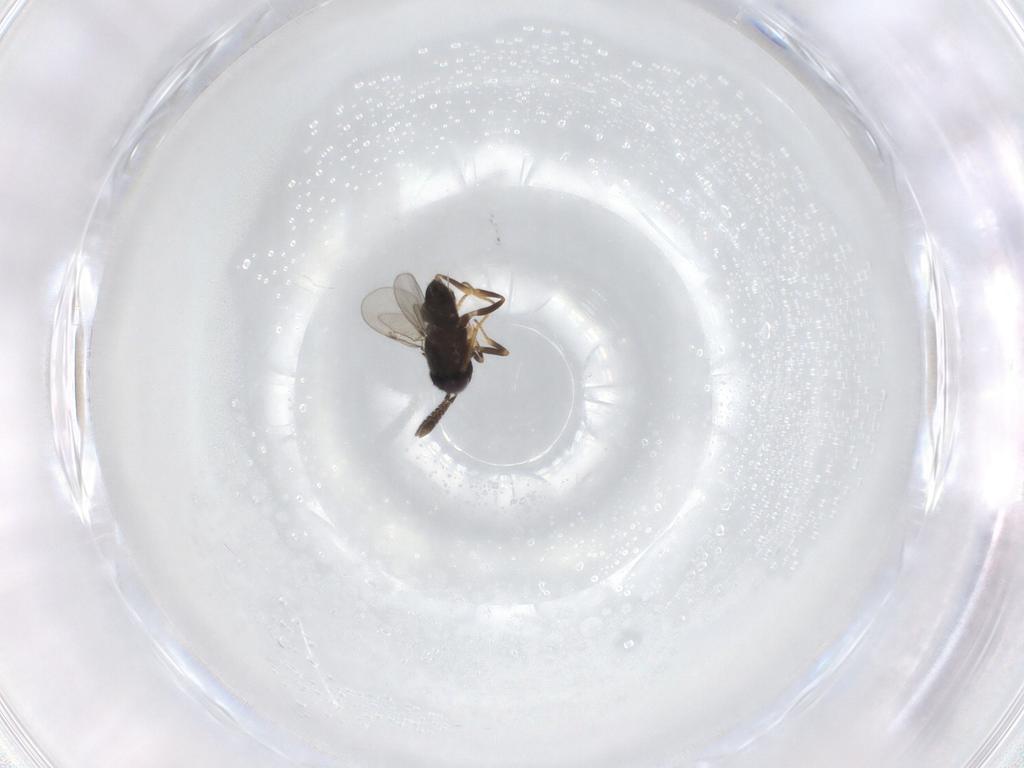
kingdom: Animalia
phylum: Arthropoda
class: Insecta
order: Hymenoptera
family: Encyrtidae
